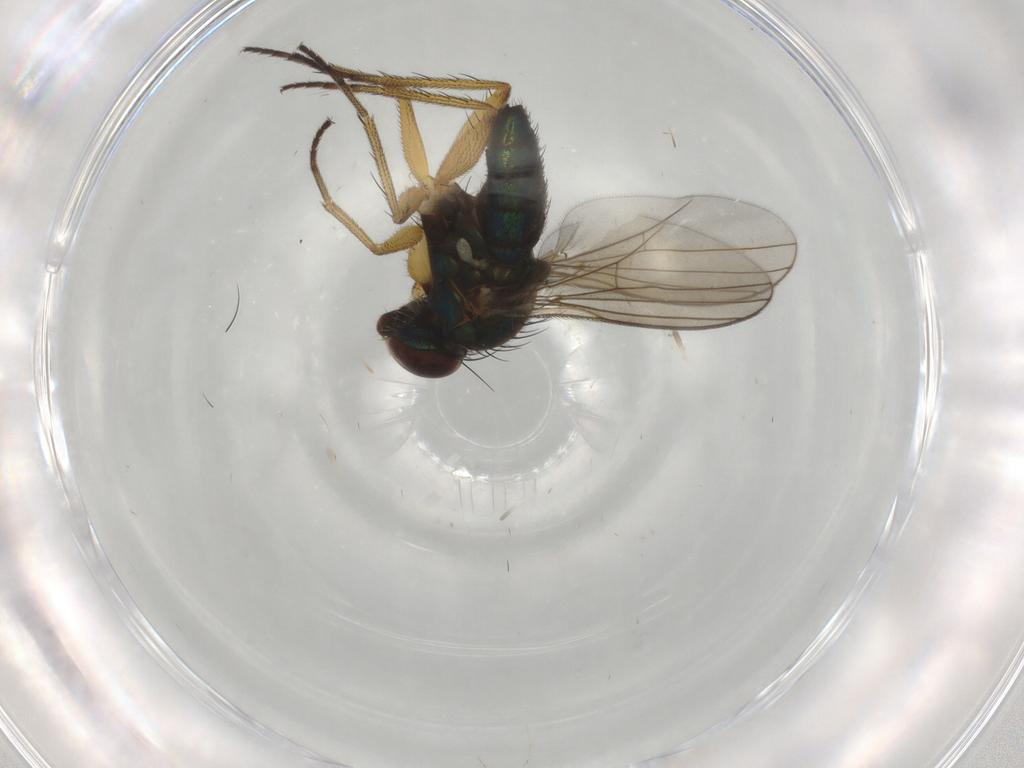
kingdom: Animalia
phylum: Arthropoda
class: Insecta
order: Diptera
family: Dolichopodidae
